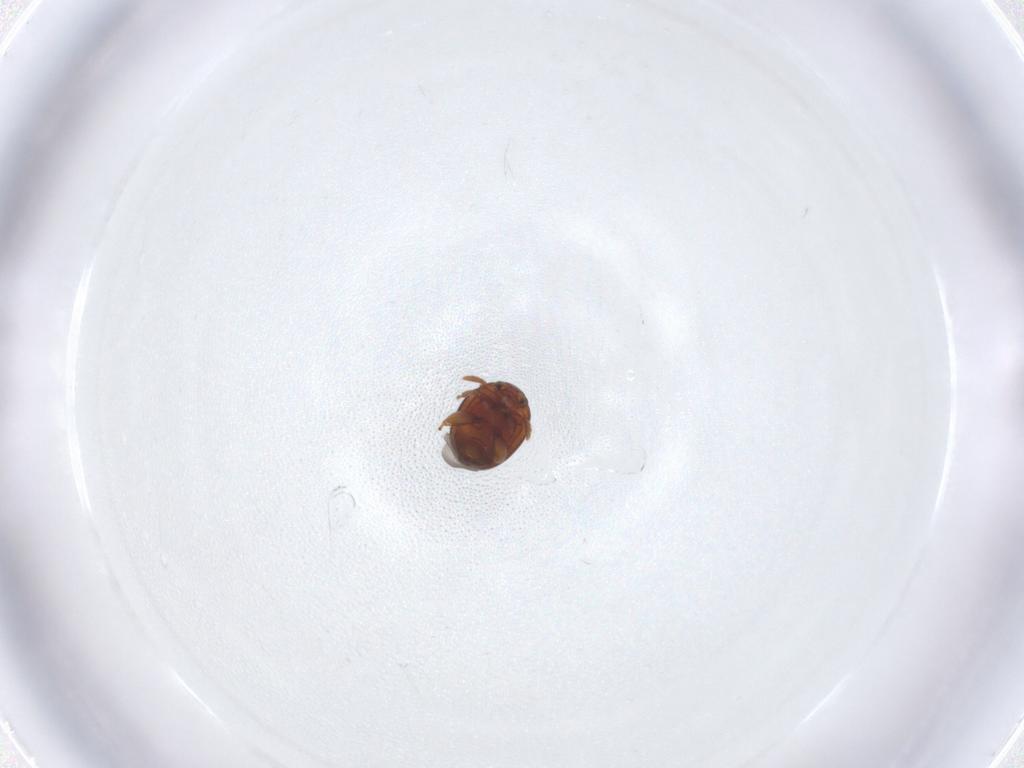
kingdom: Animalia
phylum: Arthropoda
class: Insecta
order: Coleoptera
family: Chrysomelidae
